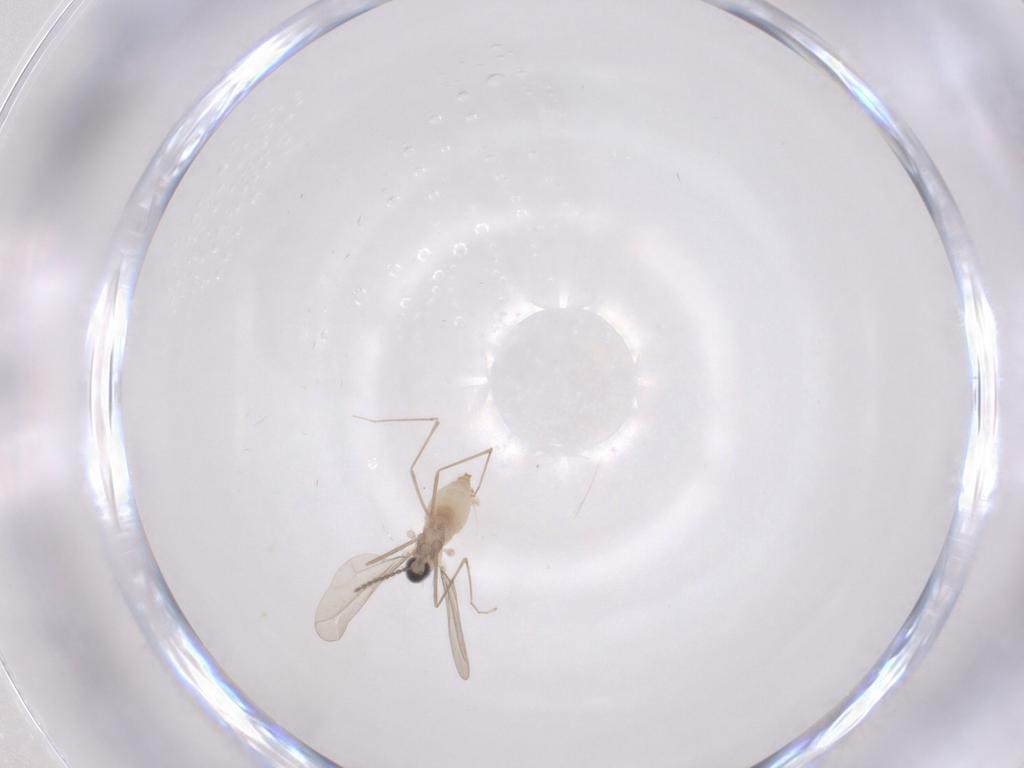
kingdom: Animalia
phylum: Arthropoda
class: Insecta
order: Diptera
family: Cecidomyiidae
